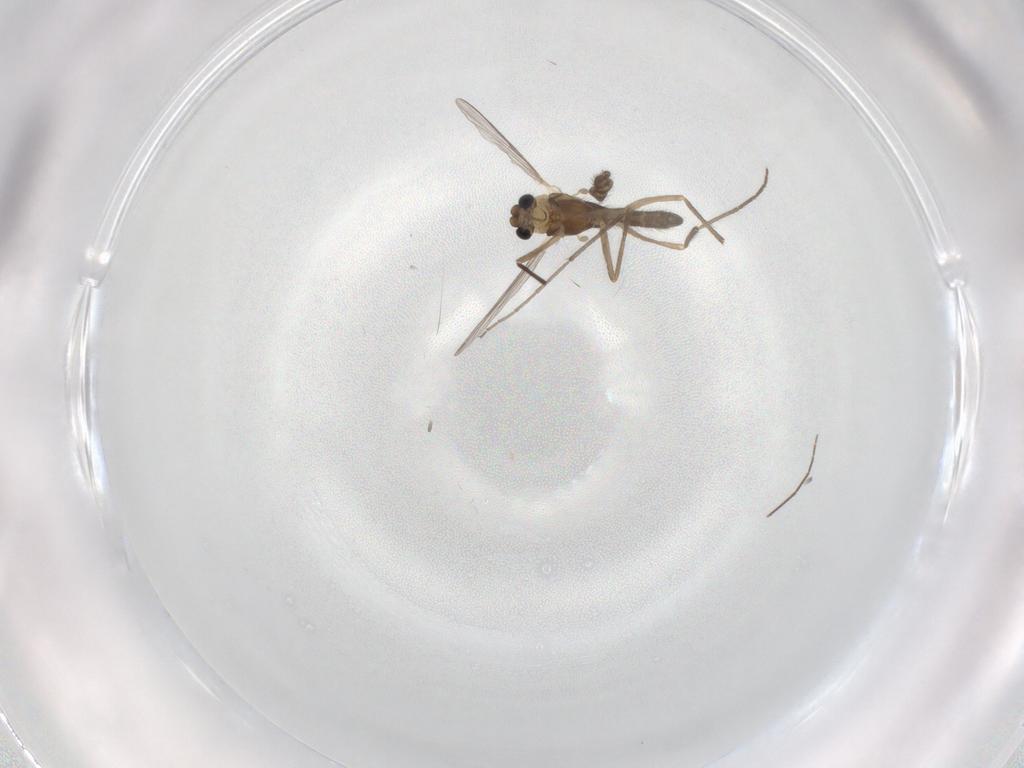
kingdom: Animalia
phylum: Arthropoda
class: Insecta
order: Diptera
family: Chironomidae
